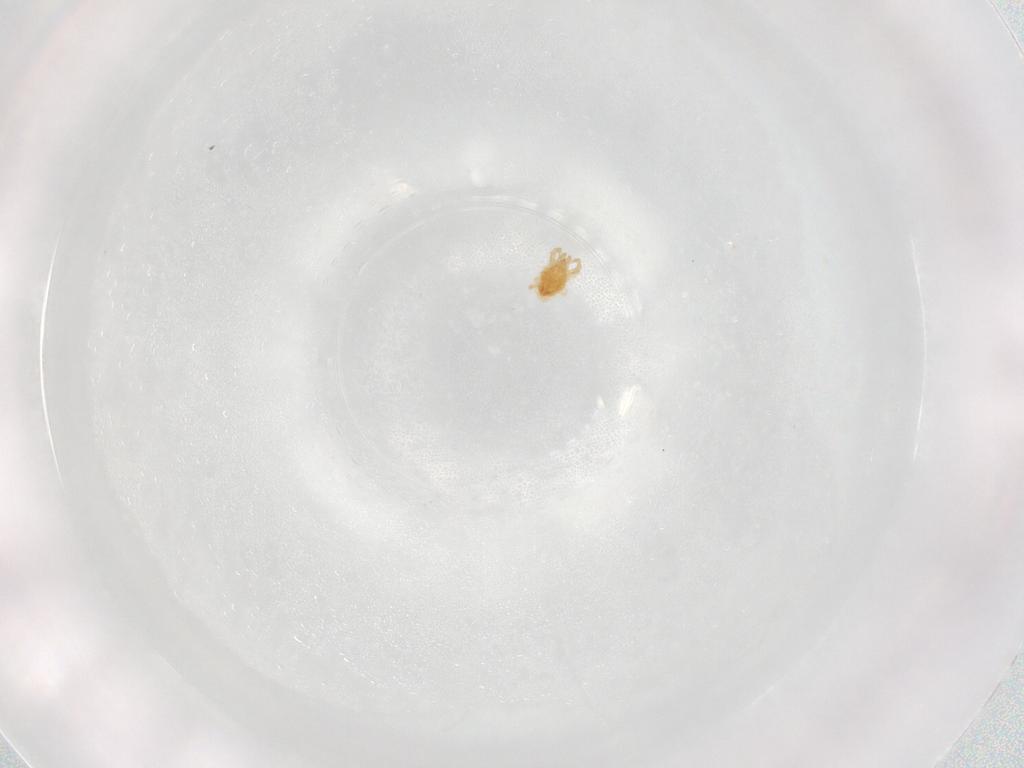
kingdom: Animalia
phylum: Arthropoda
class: Arachnida
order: Trombidiformes
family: Stigmaeidae
